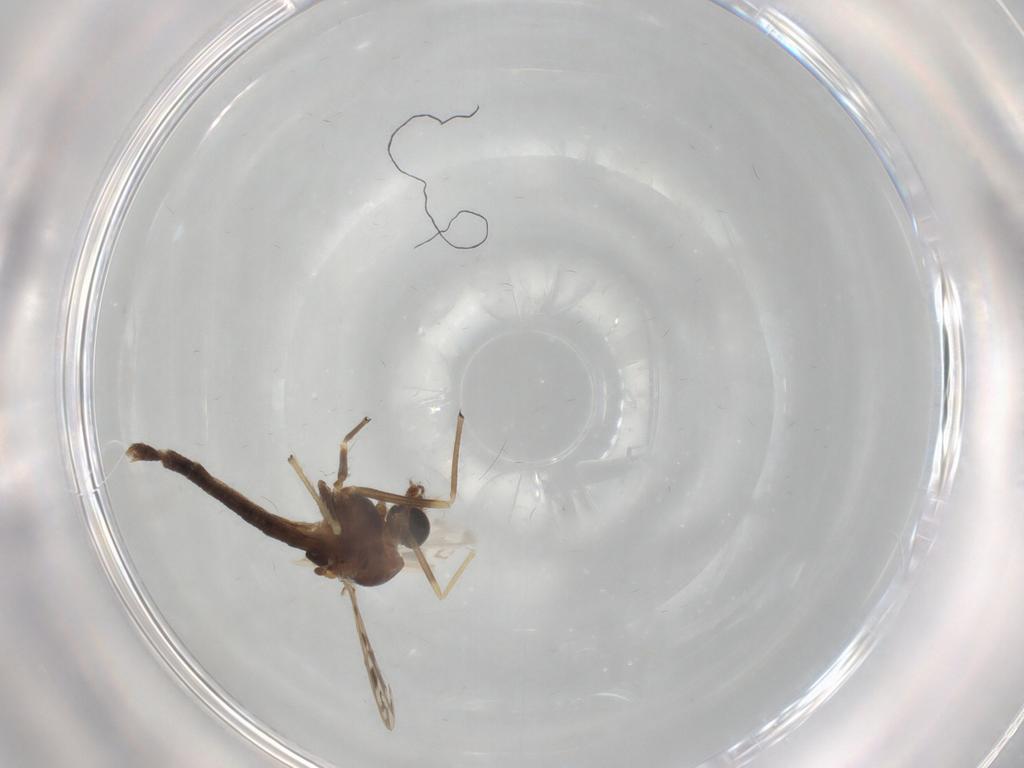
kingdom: Animalia
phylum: Arthropoda
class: Insecta
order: Diptera
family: Chironomidae
